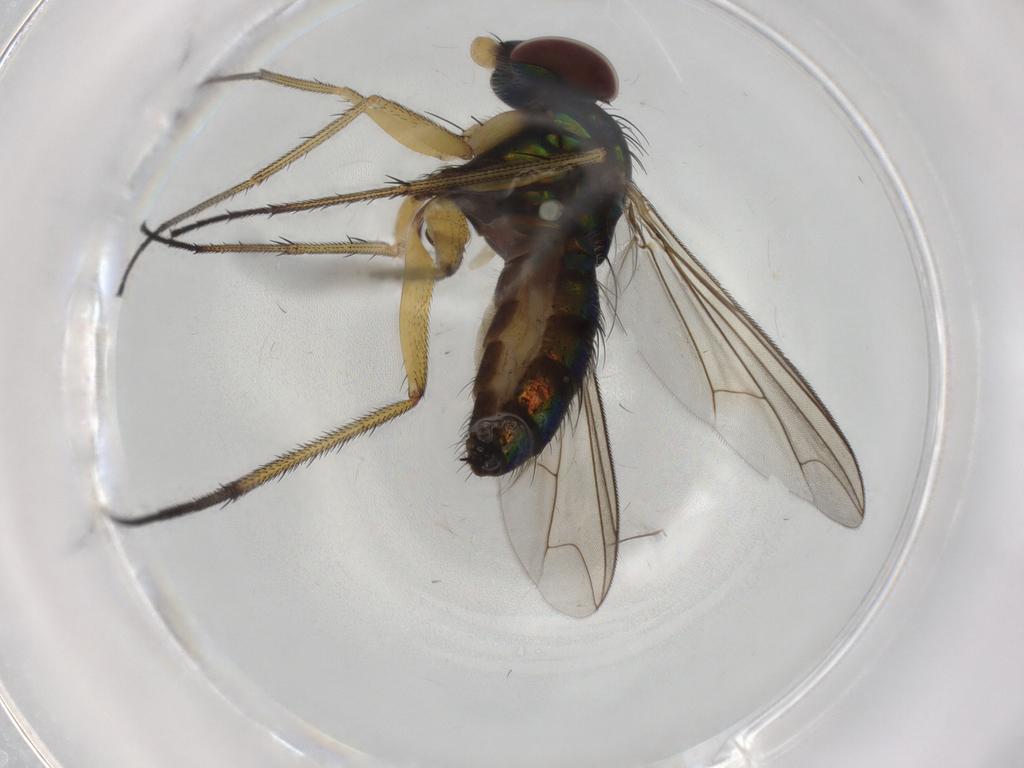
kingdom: Animalia
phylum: Arthropoda
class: Insecta
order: Diptera
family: Dolichopodidae
